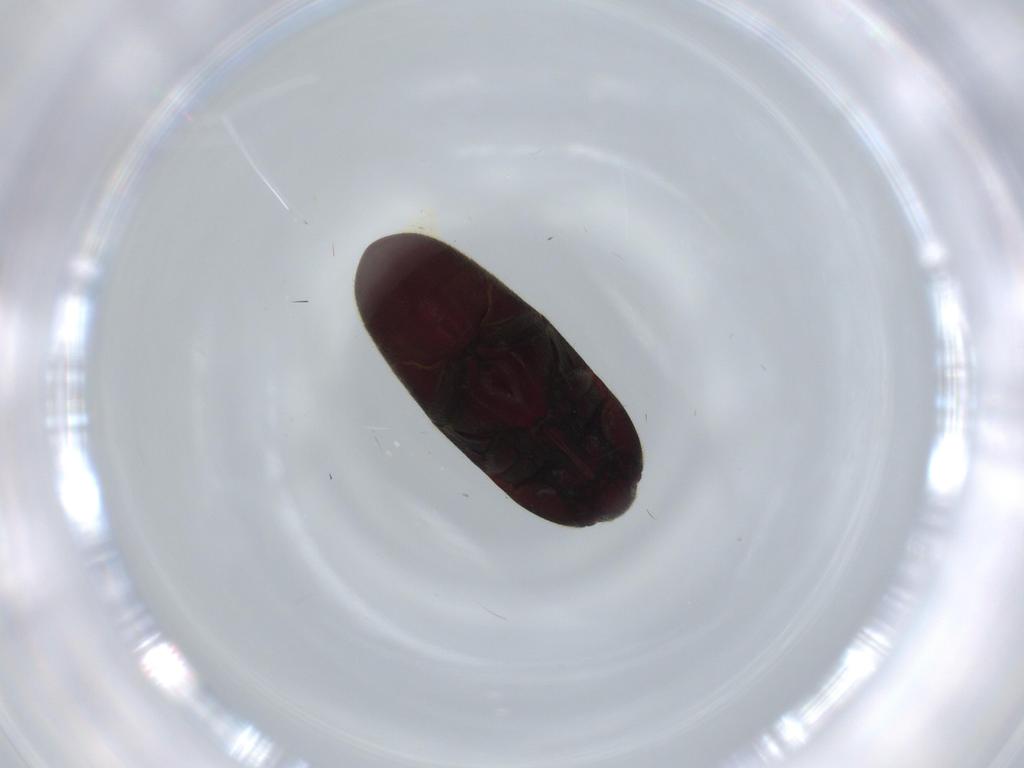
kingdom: Animalia
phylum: Arthropoda
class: Insecta
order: Coleoptera
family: Throscidae
